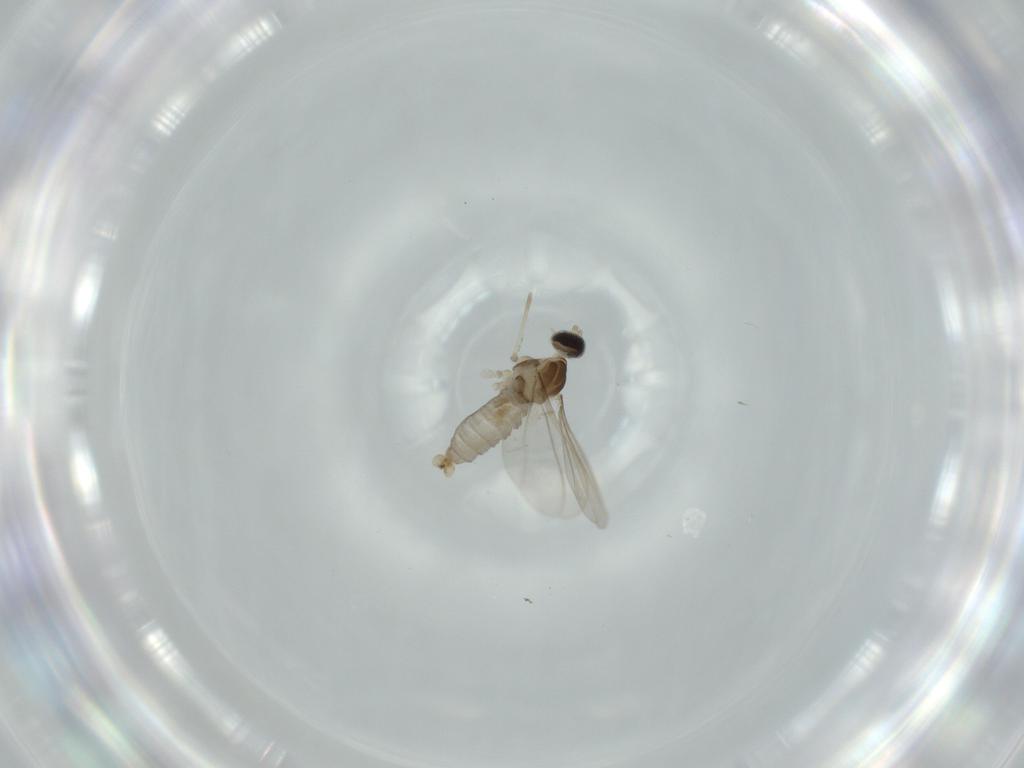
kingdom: Animalia
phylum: Arthropoda
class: Insecta
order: Diptera
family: Cecidomyiidae
